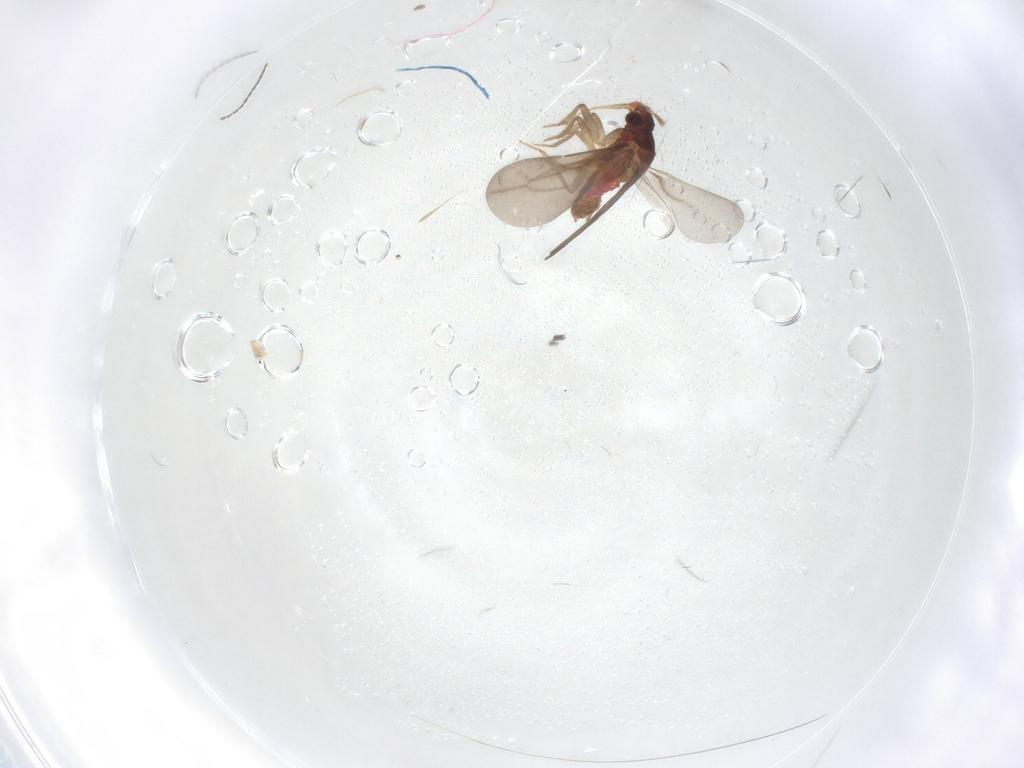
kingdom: Animalia
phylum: Arthropoda
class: Insecta
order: Hemiptera
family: Ceratocombidae
